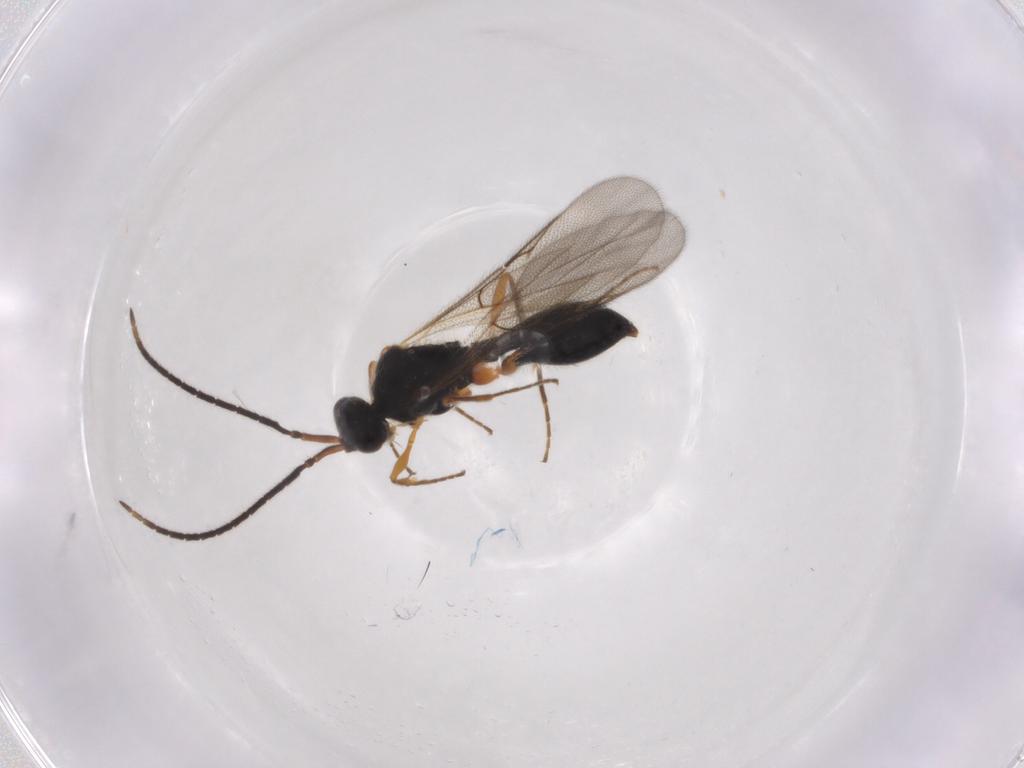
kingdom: Animalia
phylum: Arthropoda
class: Insecta
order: Hymenoptera
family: Diapriidae
